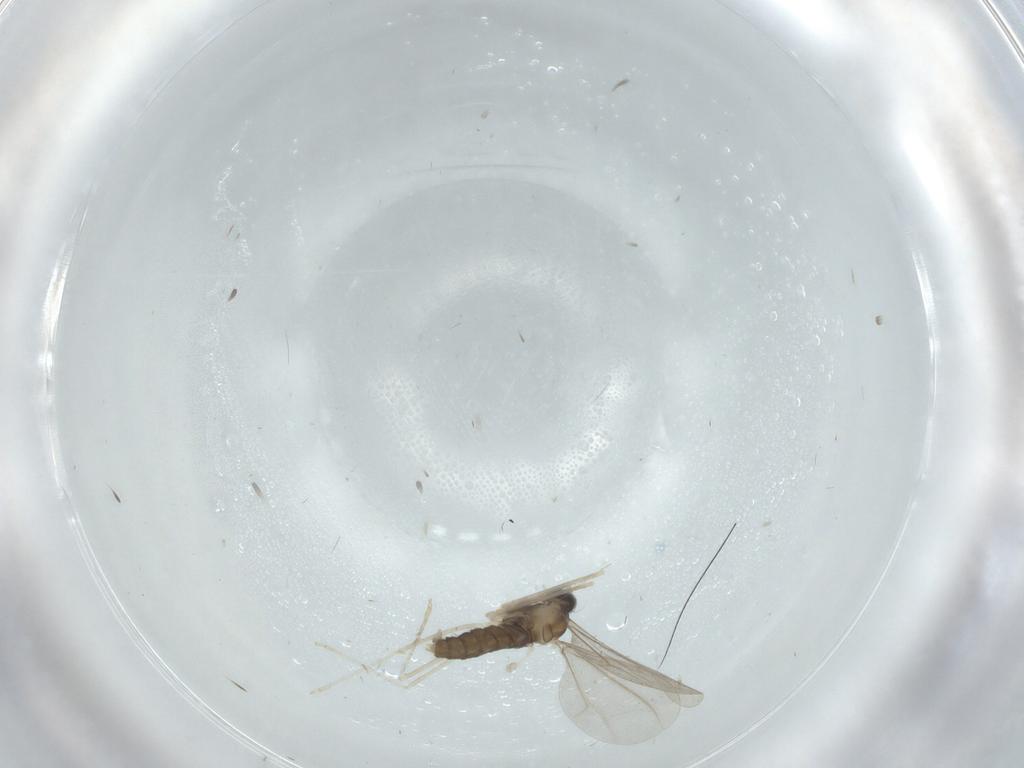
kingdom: Animalia
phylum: Arthropoda
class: Insecta
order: Diptera
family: Cecidomyiidae
